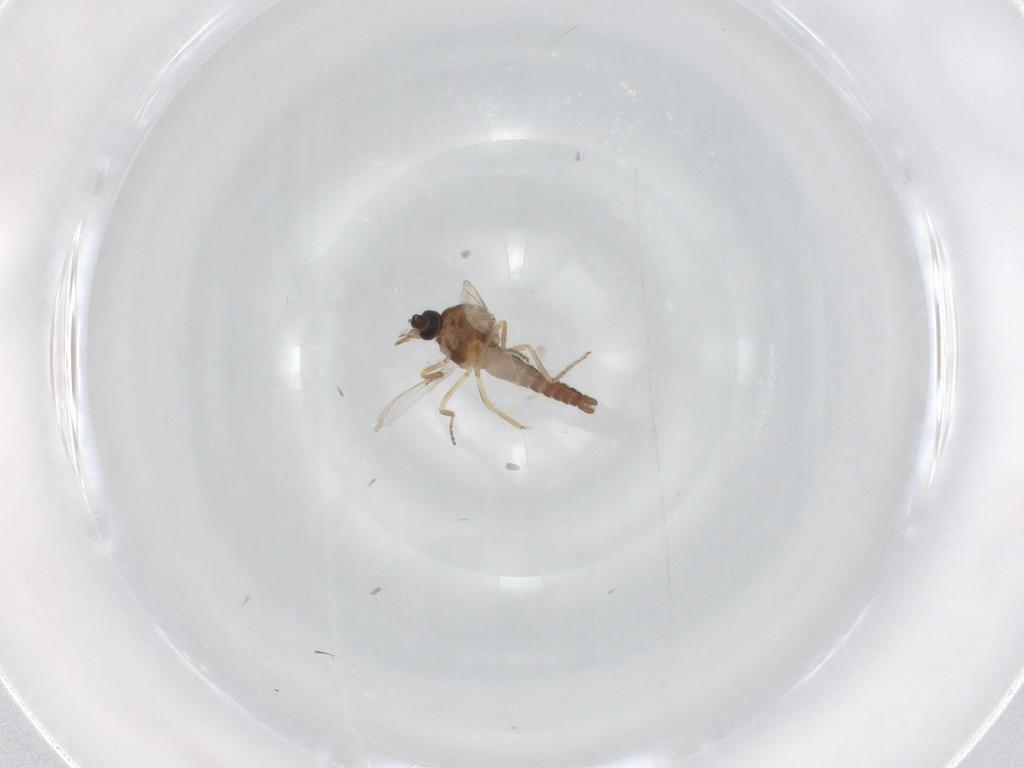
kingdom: Animalia
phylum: Arthropoda
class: Insecta
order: Diptera
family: Ceratopogonidae
